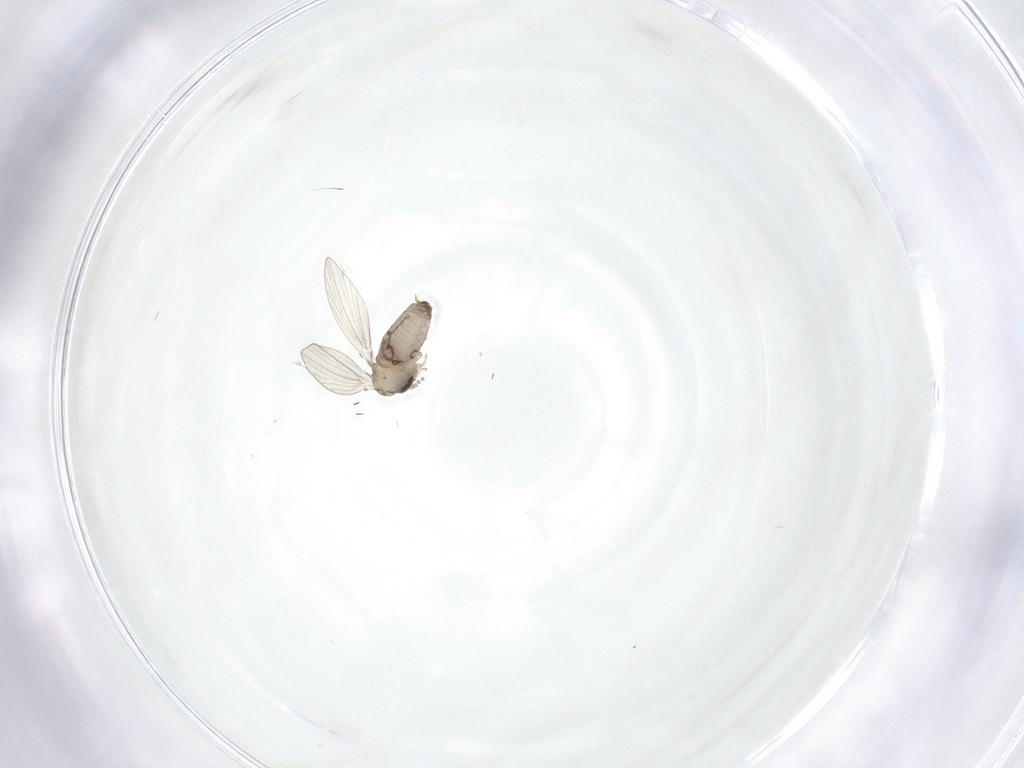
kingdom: Animalia
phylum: Arthropoda
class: Insecta
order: Diptera
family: Psychodidae
